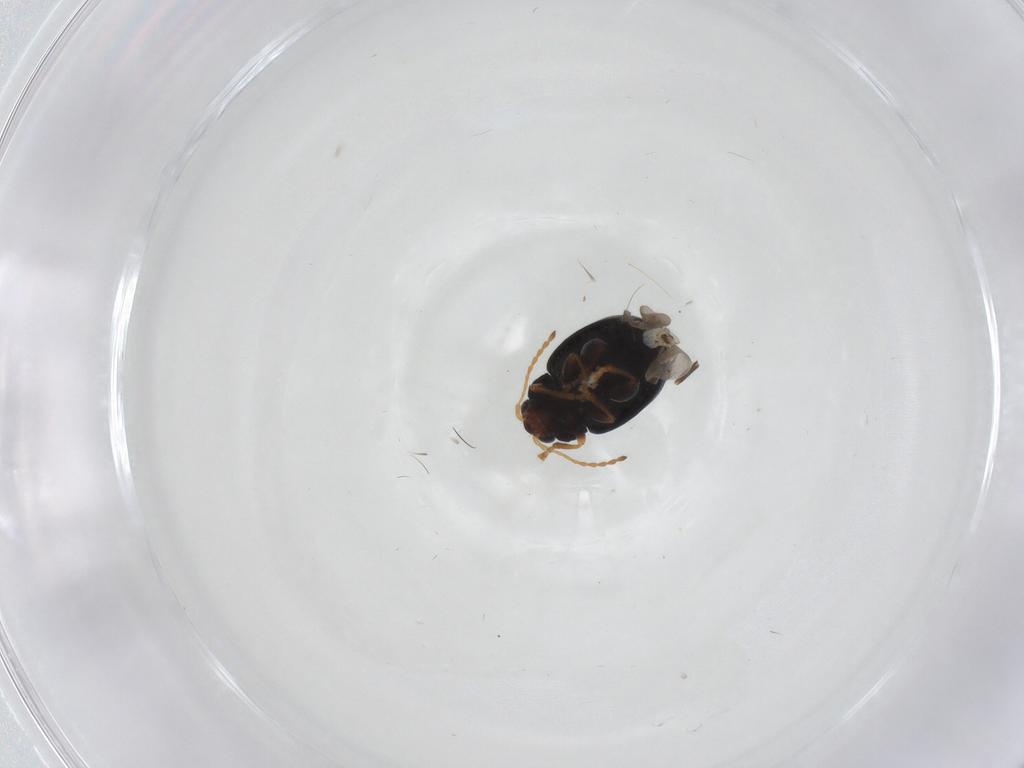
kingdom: Animalia
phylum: Arthropoda
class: Insecta
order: Coleoptera
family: Chrysomelidae
